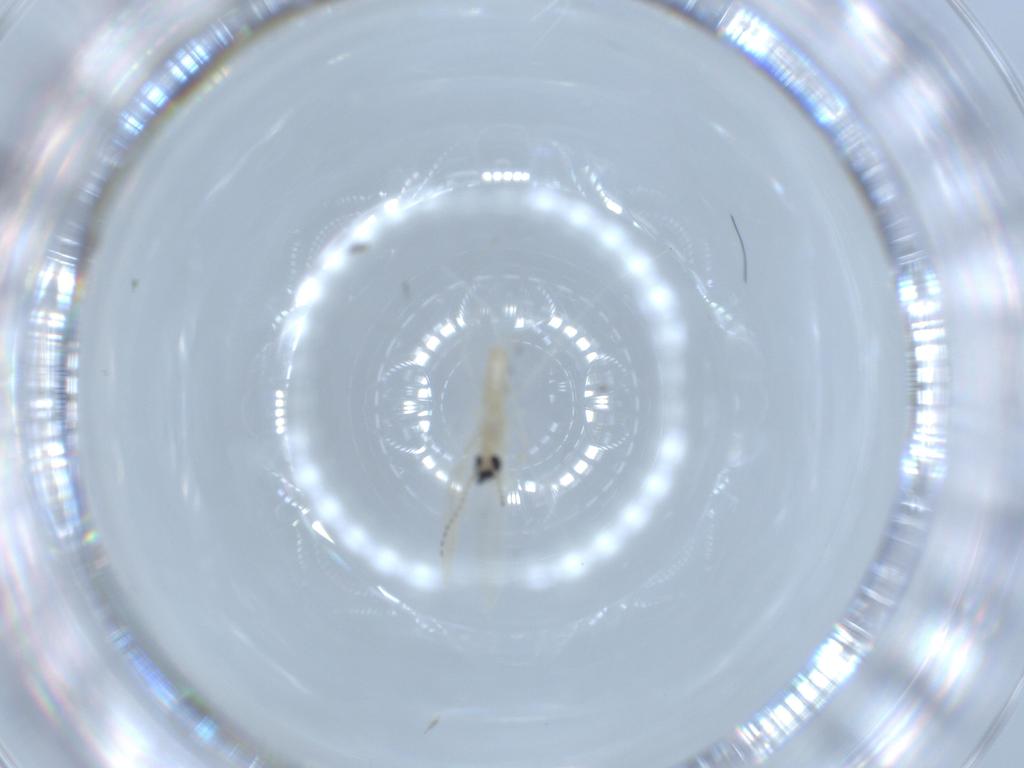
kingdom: Animalia
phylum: Arthropoda
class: Insecta
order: Diptera
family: Cecidomyiidae
